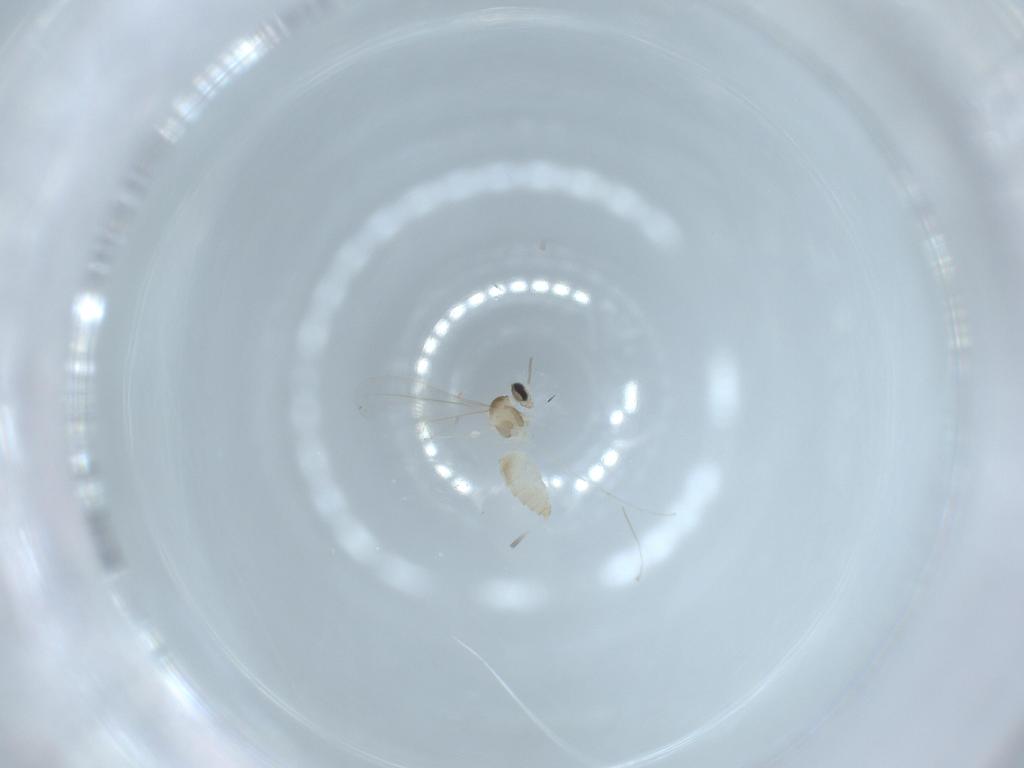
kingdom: Animalia
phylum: Arthropoda
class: Insecta
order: Diptera
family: Cecidomyiidae
